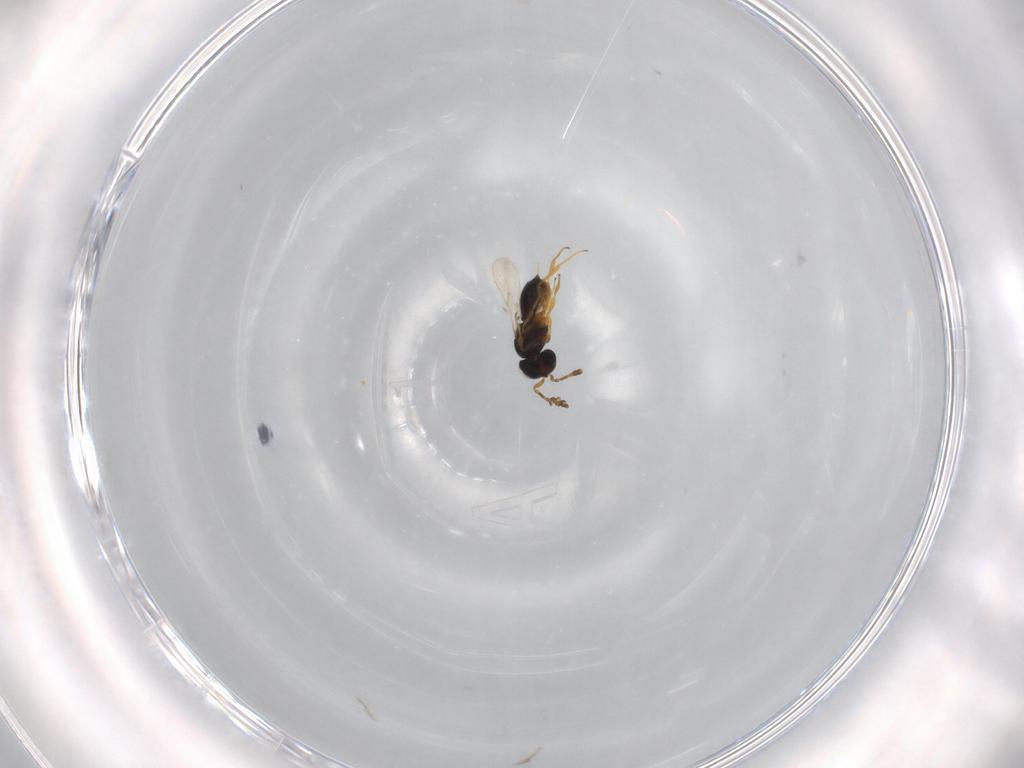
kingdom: Animalia
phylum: Arthropoda
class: Insecta
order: Hymenoptera
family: Scelionidae
